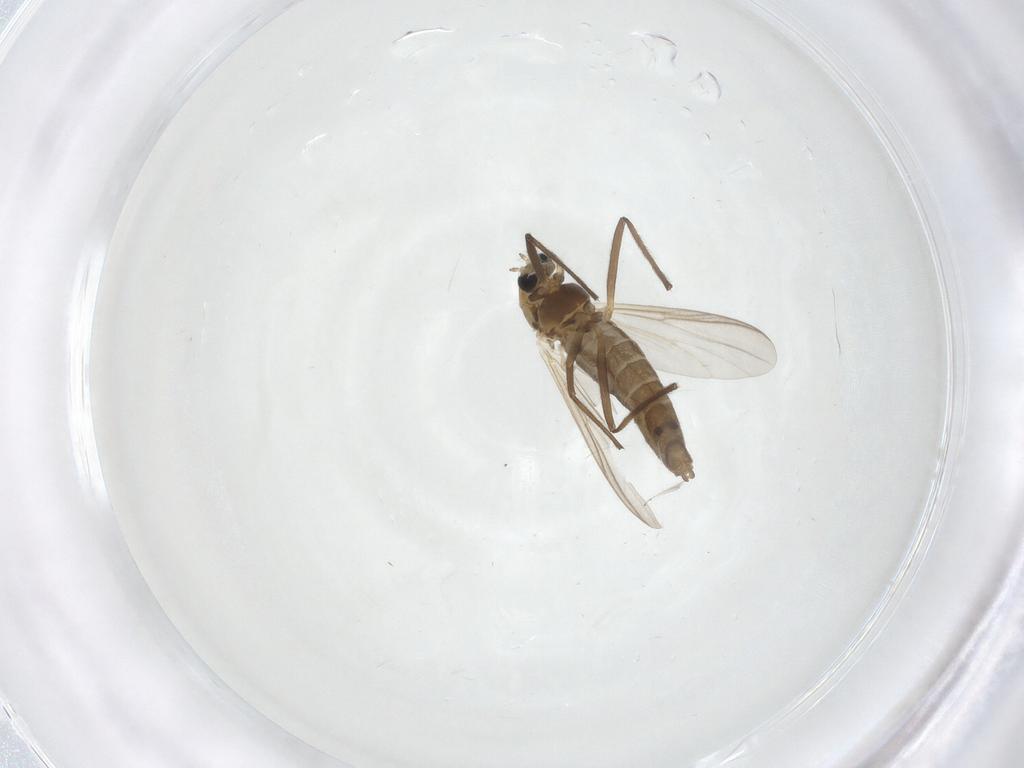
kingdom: Animalia
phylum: Arthropoda
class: Insecta
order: Diptera
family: Chironomidae
